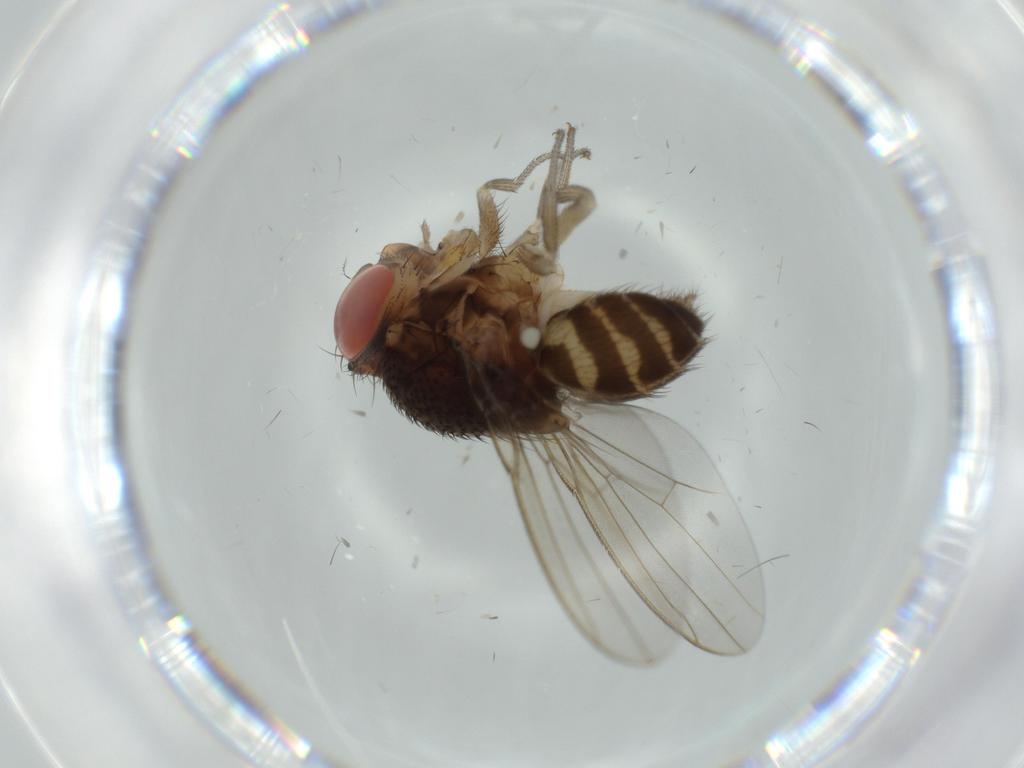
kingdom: Animalia
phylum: Arthropoda
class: Insecta
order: Diptera
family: Drosophilidae
